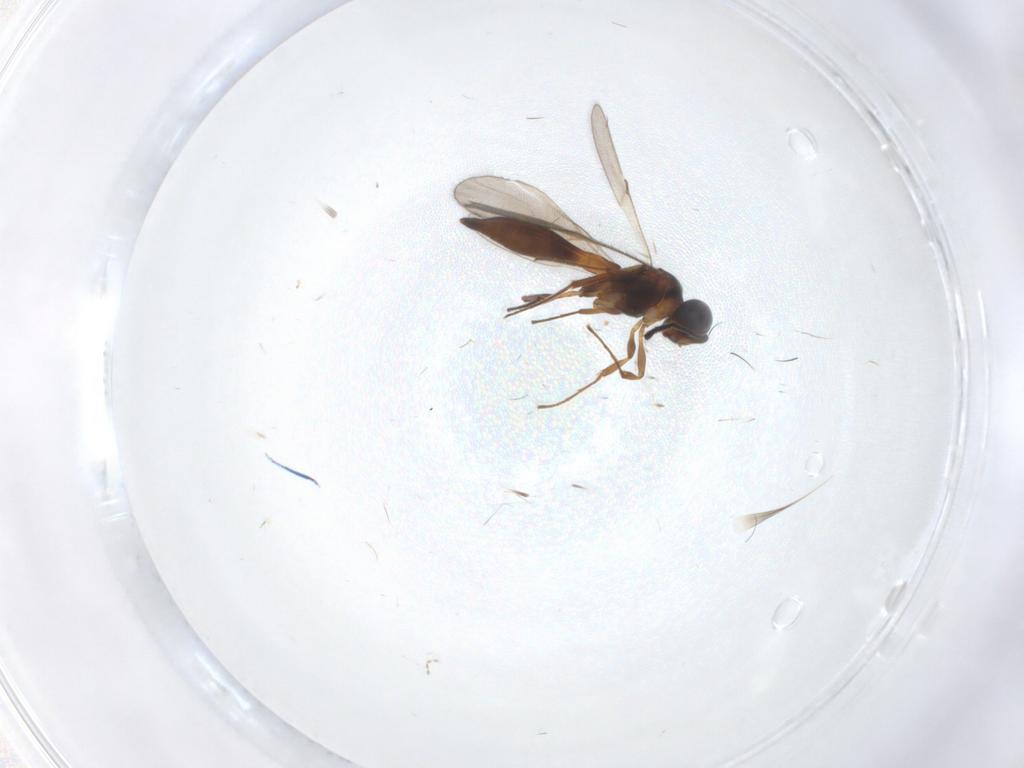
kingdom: Animalia
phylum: Arthropoda
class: Insecta
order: Hymenoptera
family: Scelionidae
